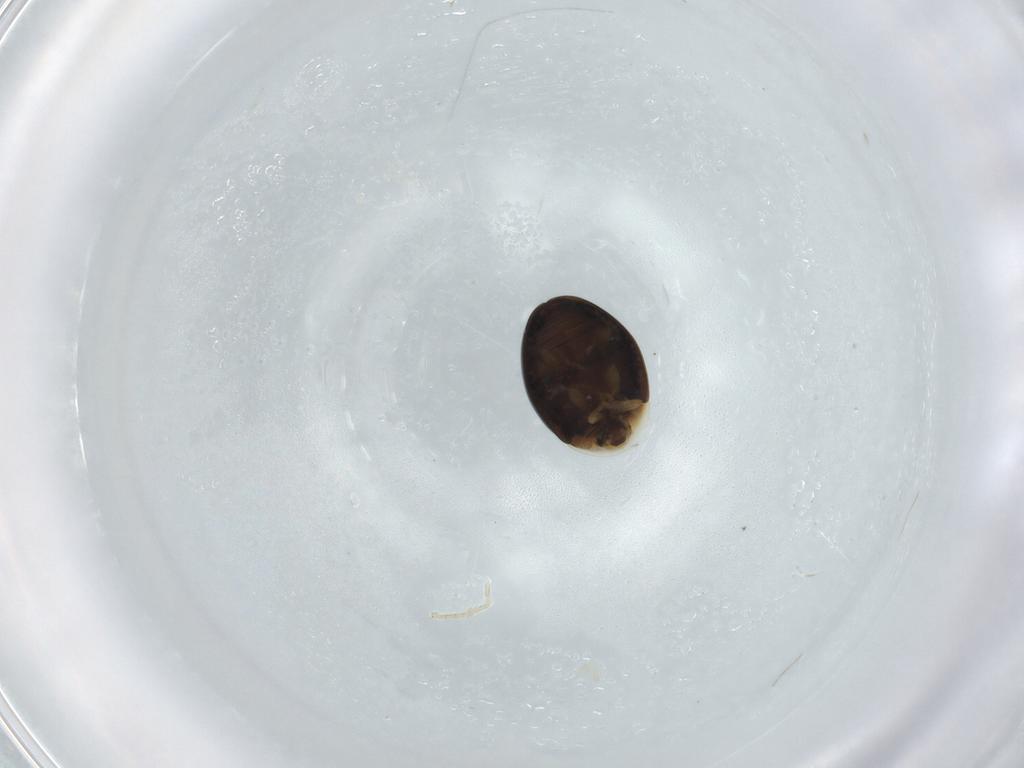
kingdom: Animalia
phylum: Arthropoda
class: Insecta
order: Coleoptera
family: Corylophidae
